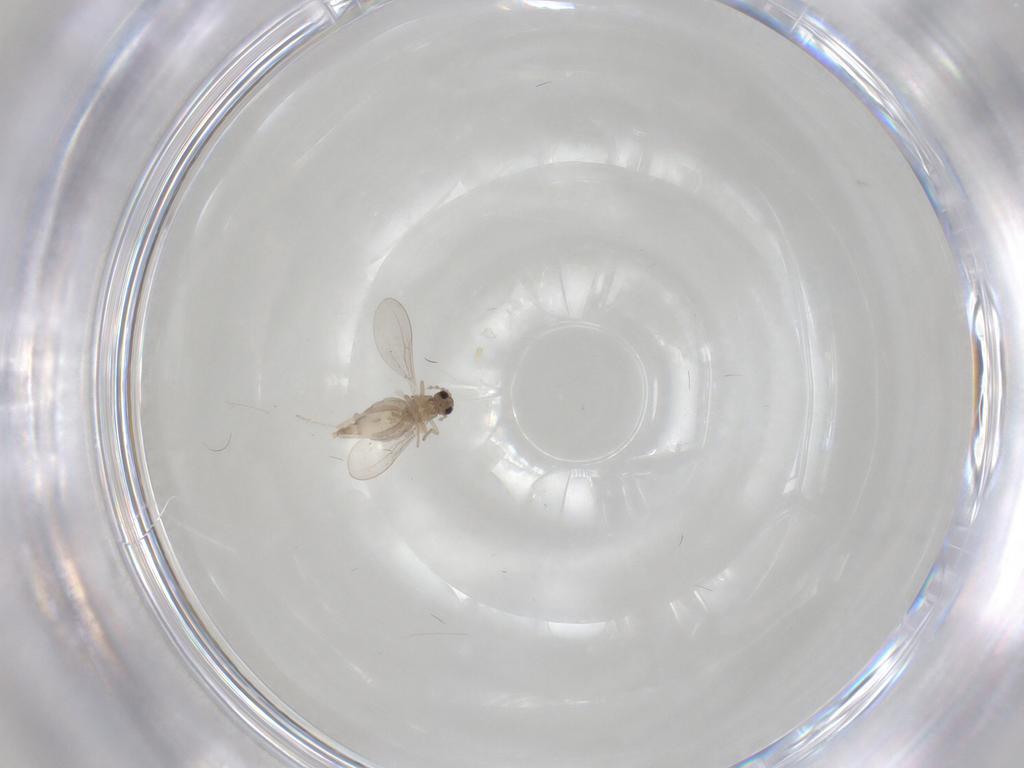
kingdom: Animalia
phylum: Arthropoda
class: Insecta
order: Diptera
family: Cecidomyiidae
